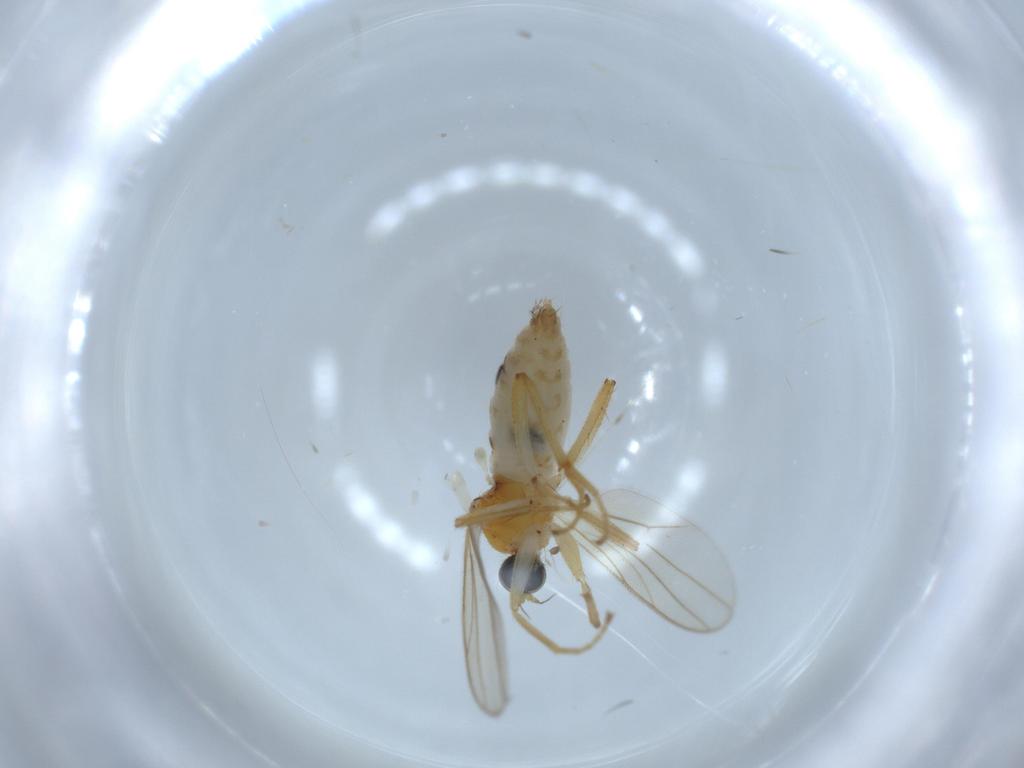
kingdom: Animalia
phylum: Arthropoda
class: Insecta
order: Diptera
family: Hybotidae
